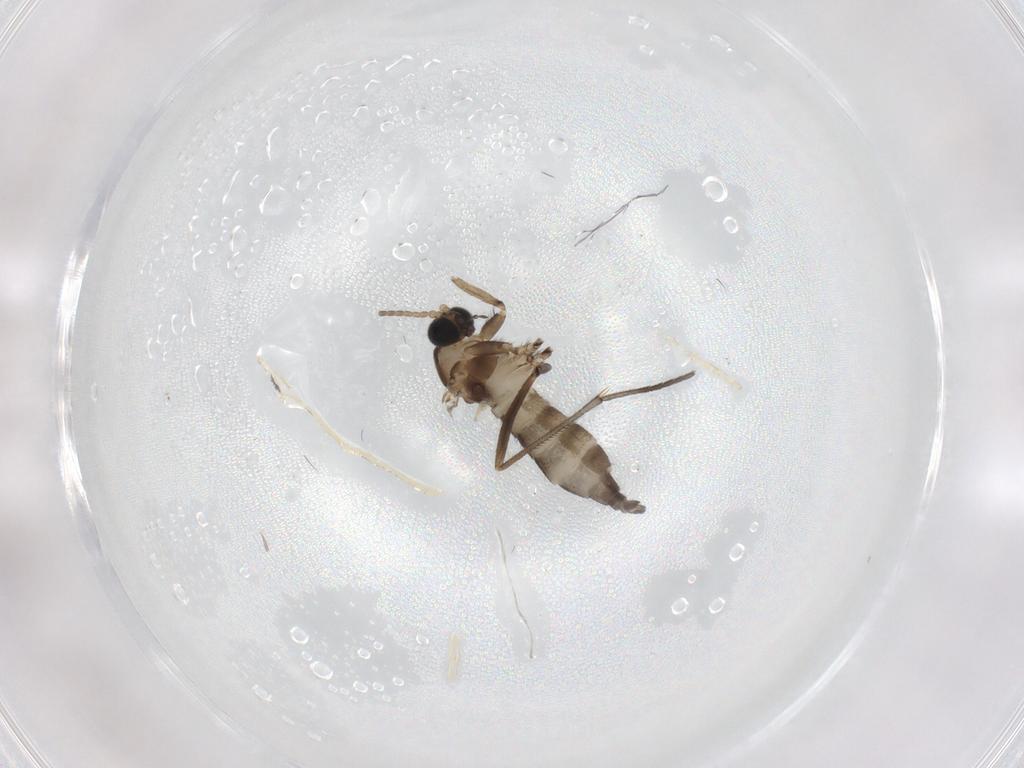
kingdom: Animalia
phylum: Arthropoda
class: Insecta
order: Diptera
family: Sciaridae
